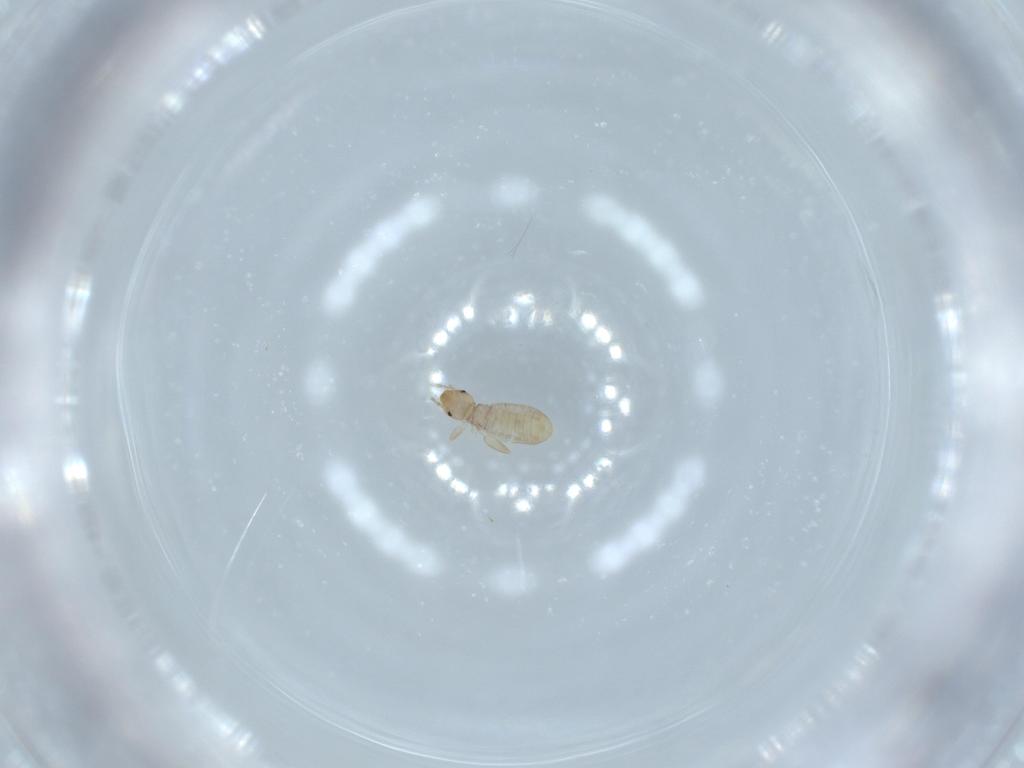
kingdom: Animalia
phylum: Arthropoda
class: Insecta
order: Psocodea
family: Liposcelididae
